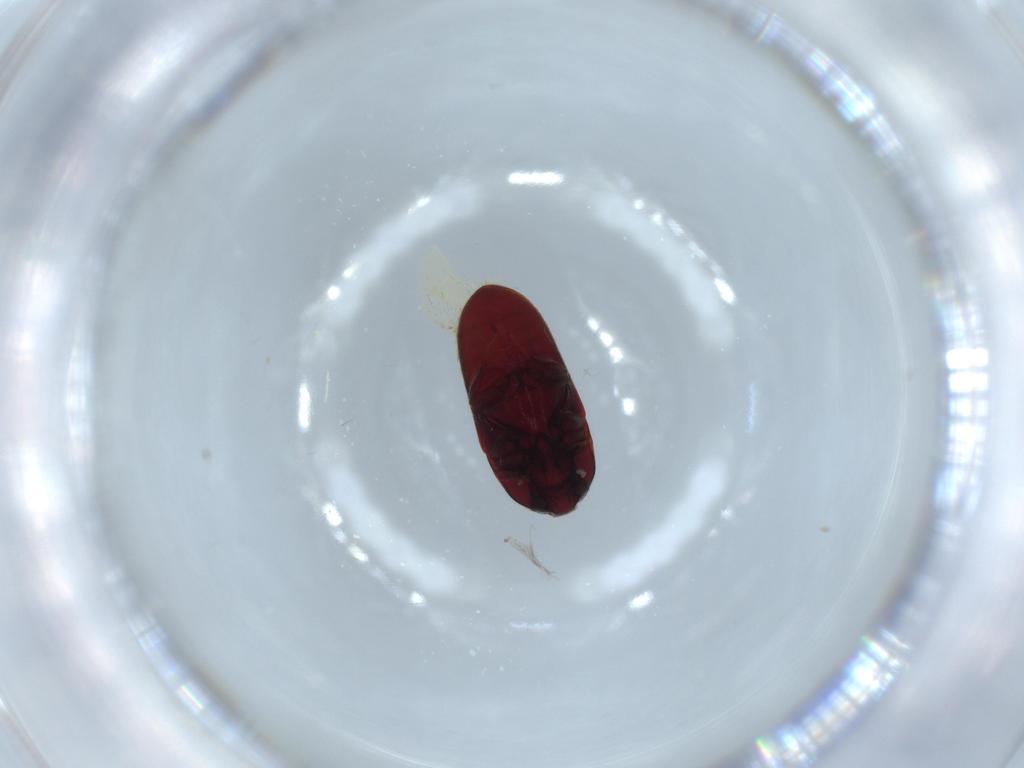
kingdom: Animalia
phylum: Arthropoda
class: Insecta
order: Coleoptera
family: Throscidae
